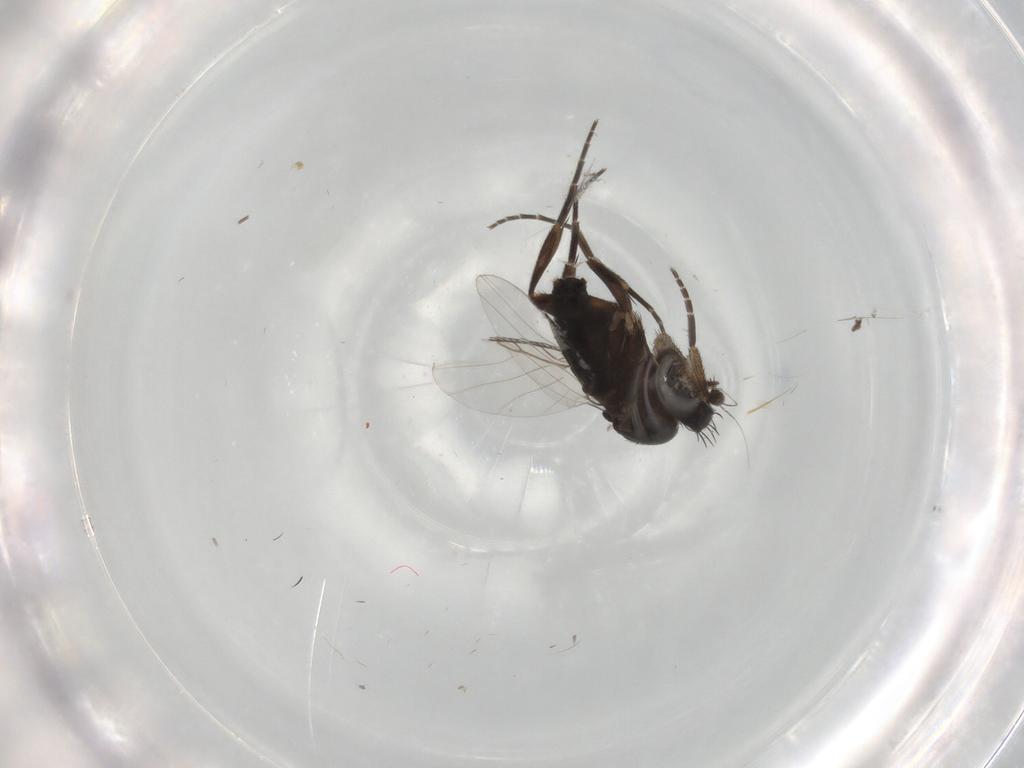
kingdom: Animalia
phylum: Arthropoda
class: Insecta
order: Diptera
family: Phoridae
